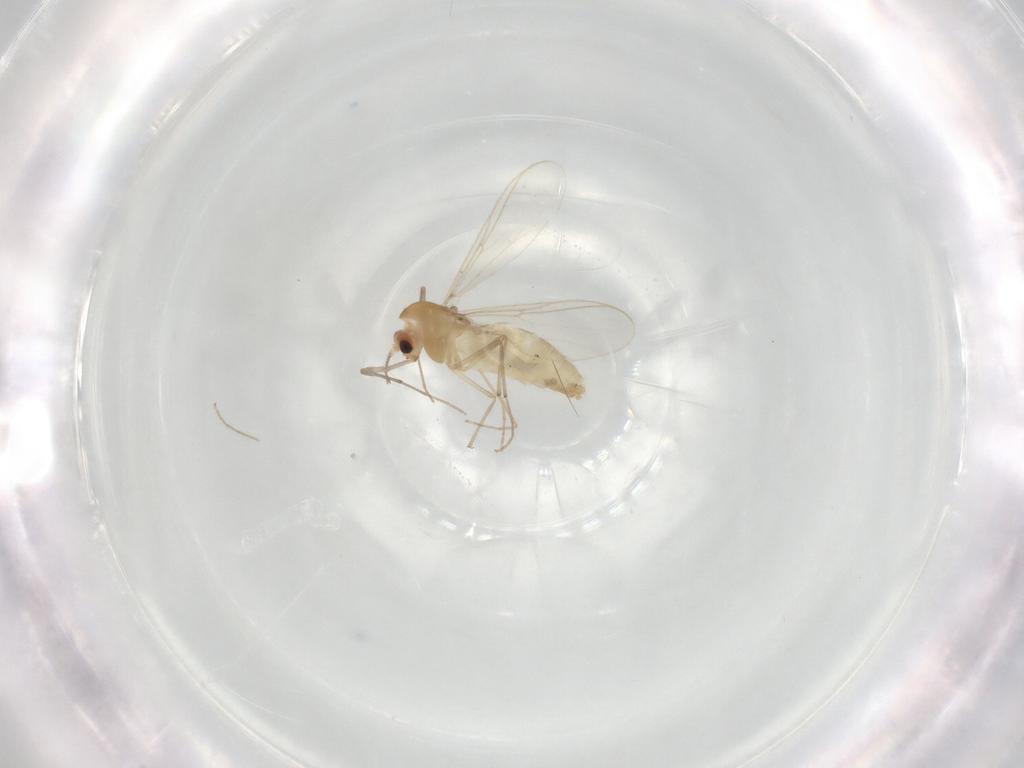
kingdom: Animalia
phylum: Arthropoda
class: Insecta
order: Diptera
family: Chironomidae
